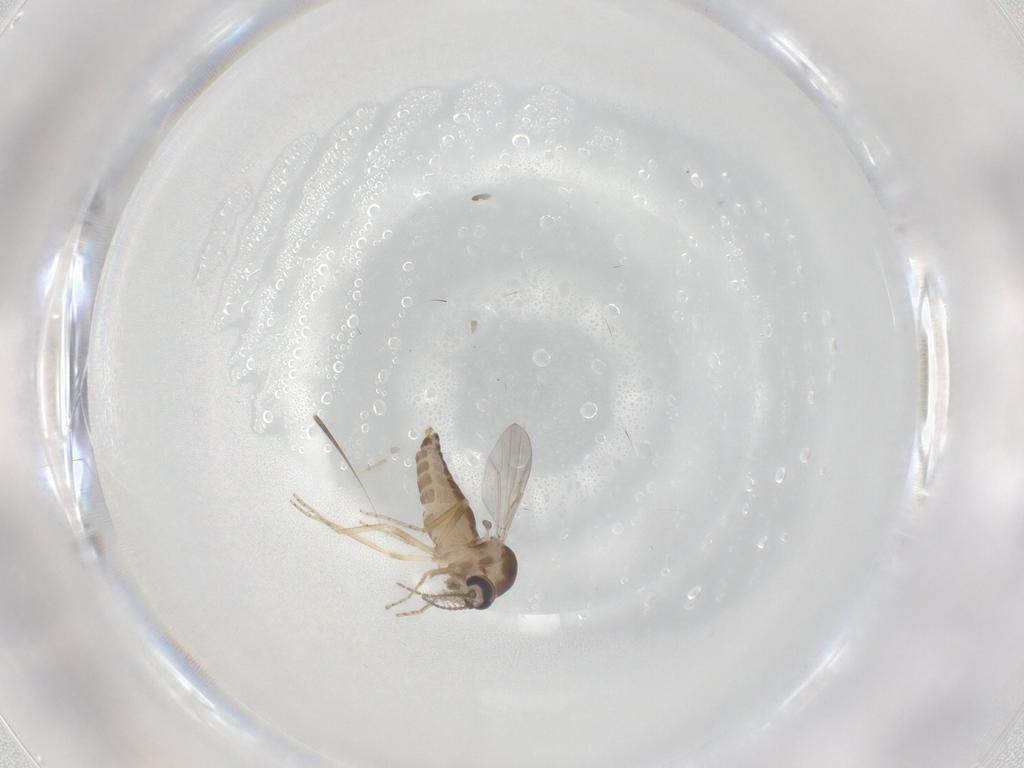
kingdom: Animalia
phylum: Arthropoda
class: Insecta
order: Diptera
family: Ceratopogonidae
